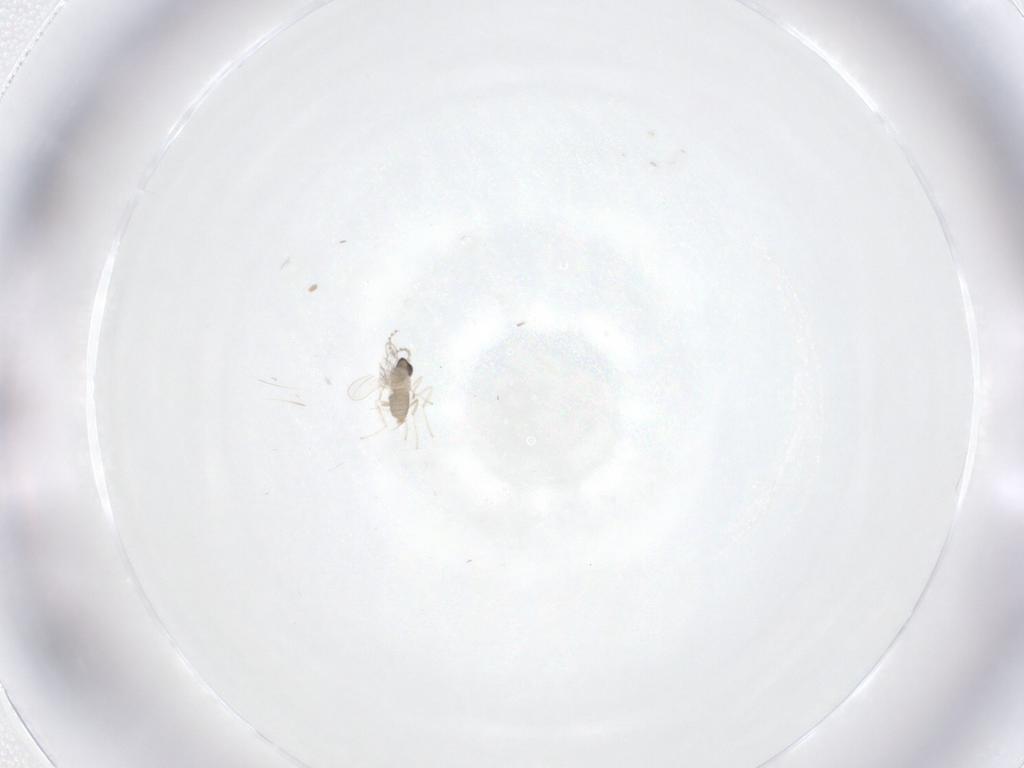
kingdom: Animalia
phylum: Arthropoda
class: Insecta
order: Diptera
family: Cecidomyiidae
